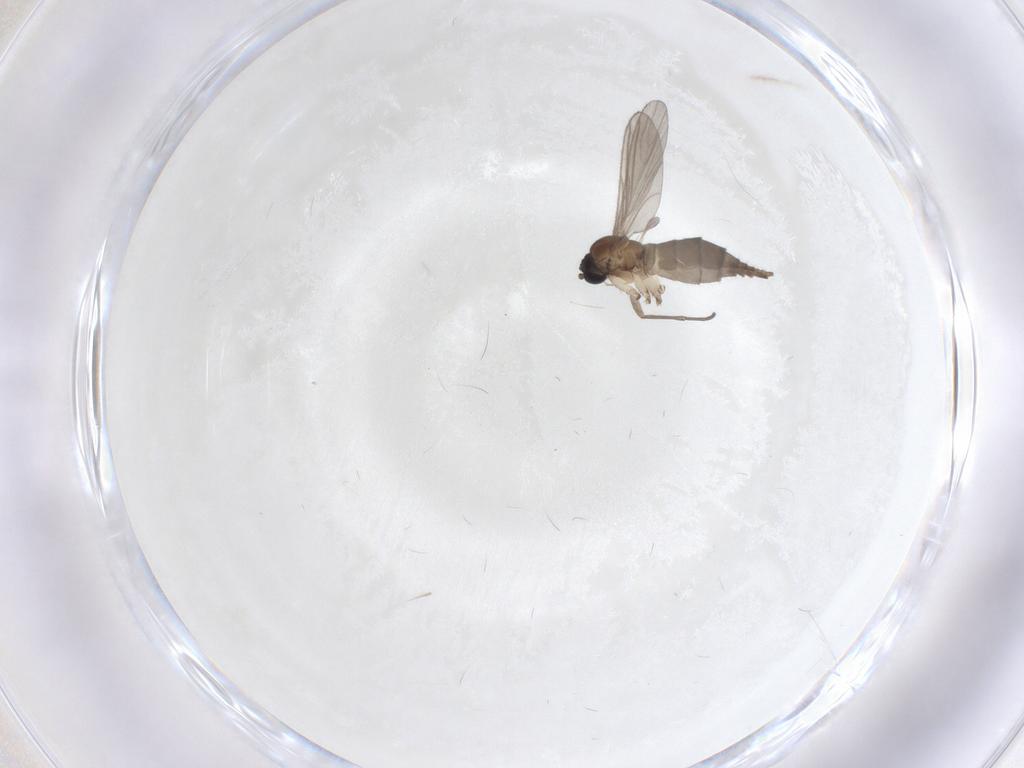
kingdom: Animalia
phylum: Arthropoda
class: Insecta
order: Diptera
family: Sciaridae
